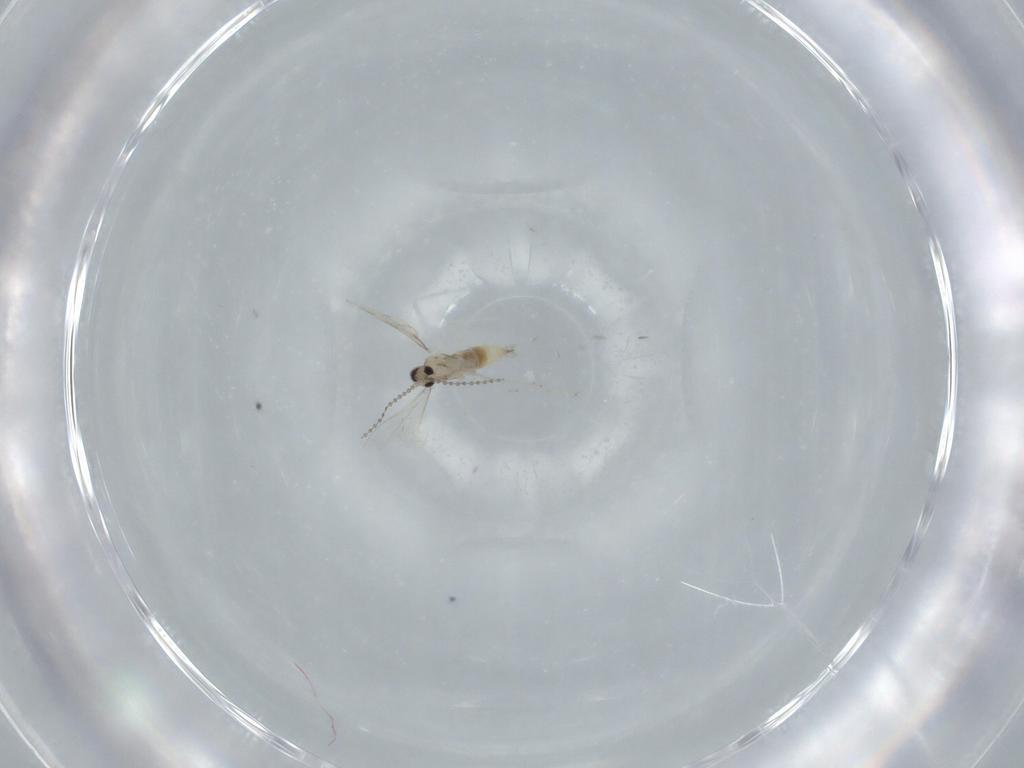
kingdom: Animalia
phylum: Arthropoda
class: Insecta
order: Diptera
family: Cecidomyiidae
